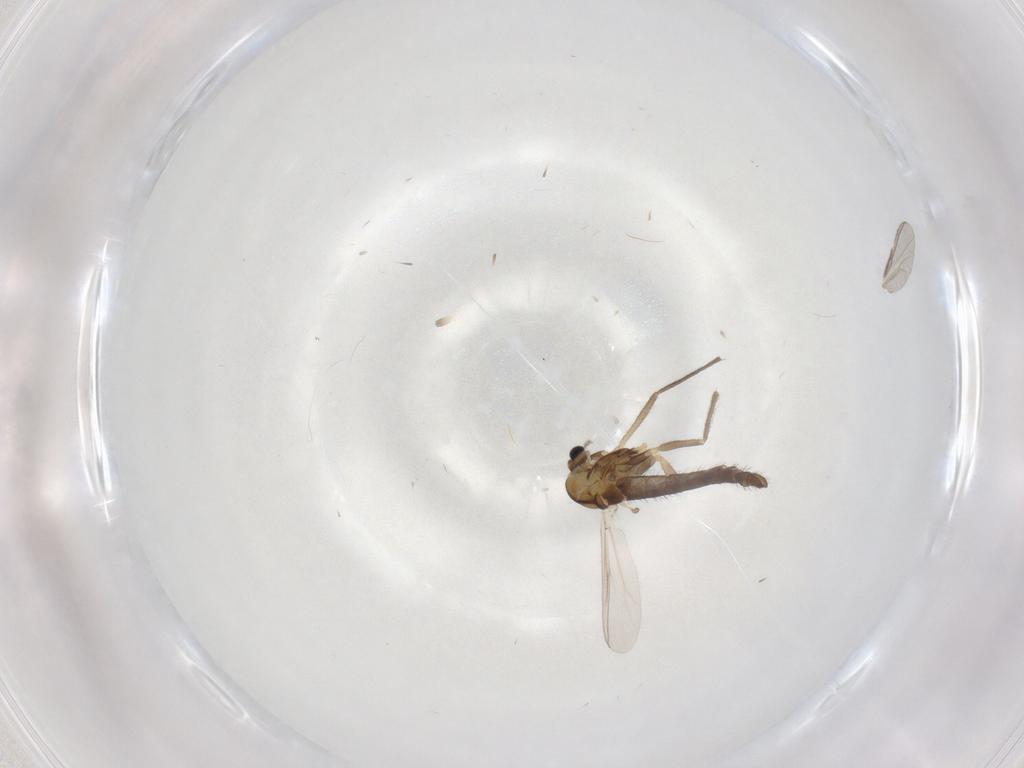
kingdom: Animalia
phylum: Arthropoda
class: Insecta
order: Diptera
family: Chironomidae
